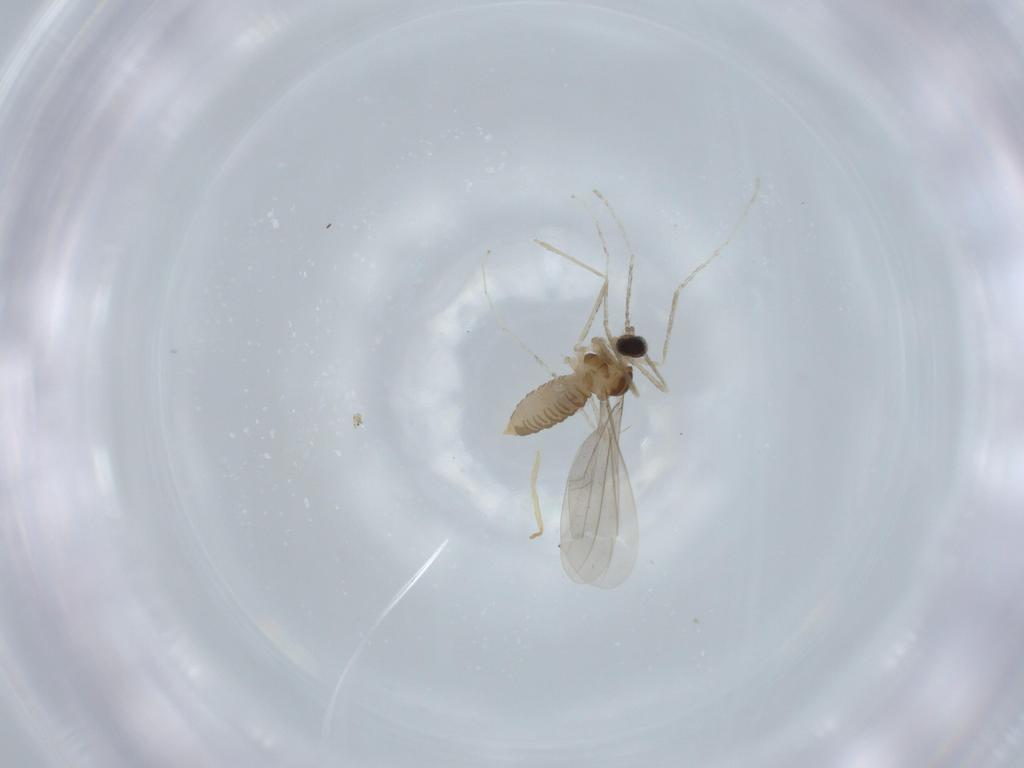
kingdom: Animalia
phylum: Arthropoda
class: Insecta
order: Diptera
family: Cecidomyiidae
